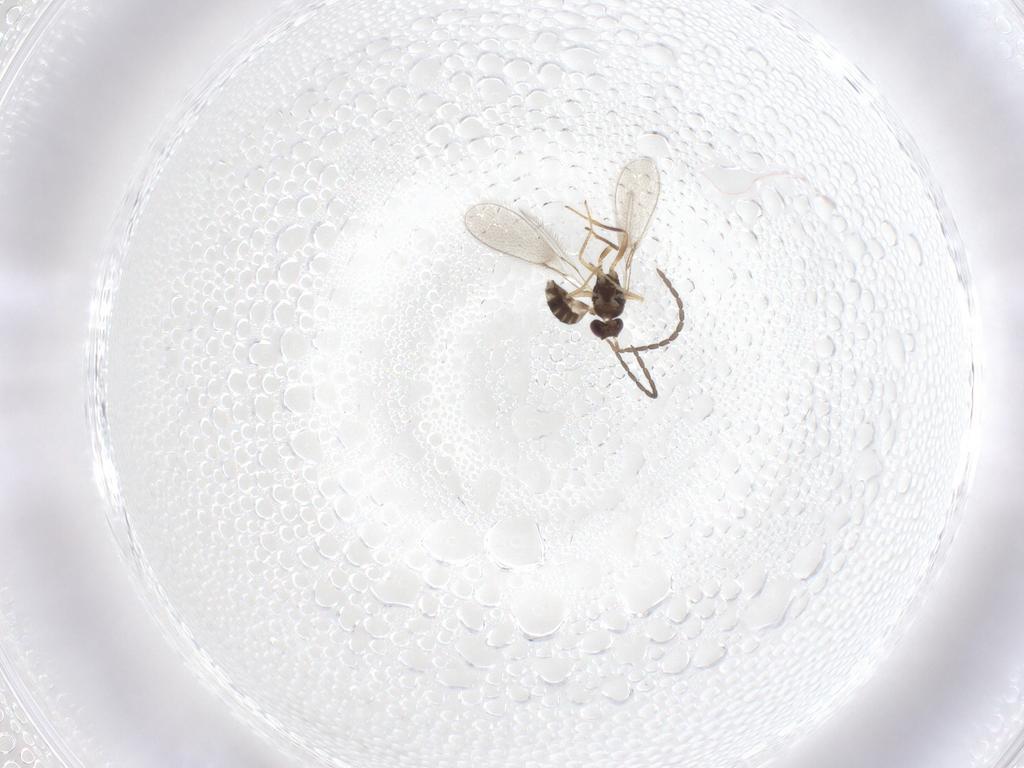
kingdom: Animalia
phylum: Arthropoda
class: Insecta
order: Hymenoptera
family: Mymaridae
